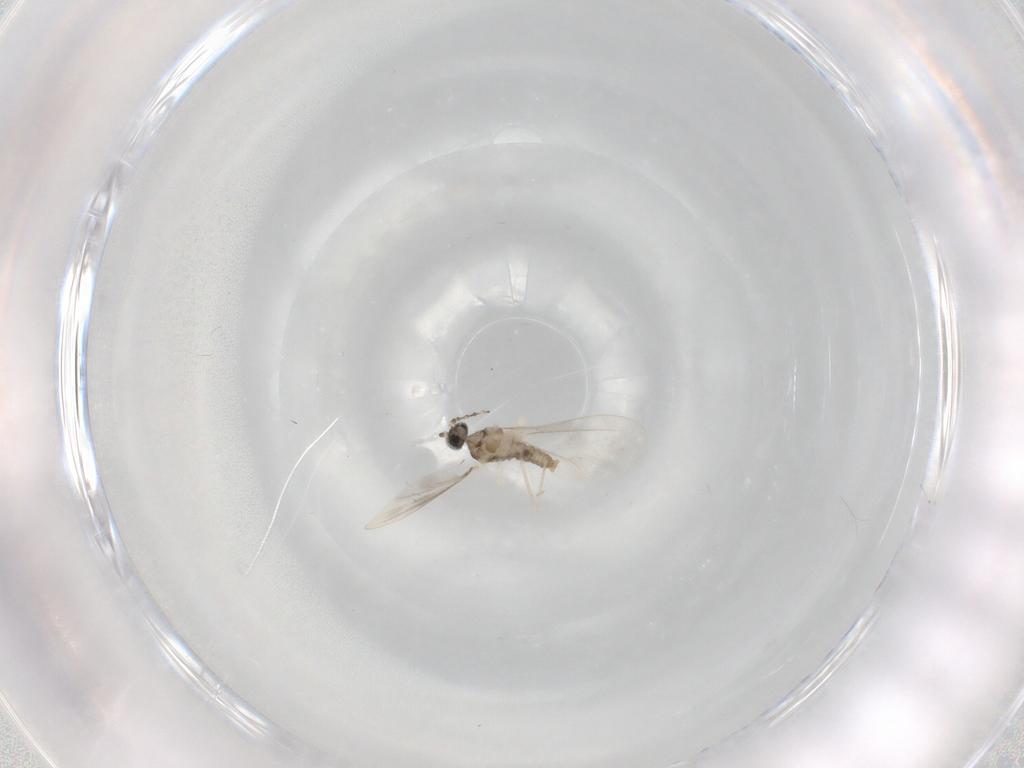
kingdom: Animalia
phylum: Arthropoda
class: Insecta
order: Diptera
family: Cecidomyiidae
